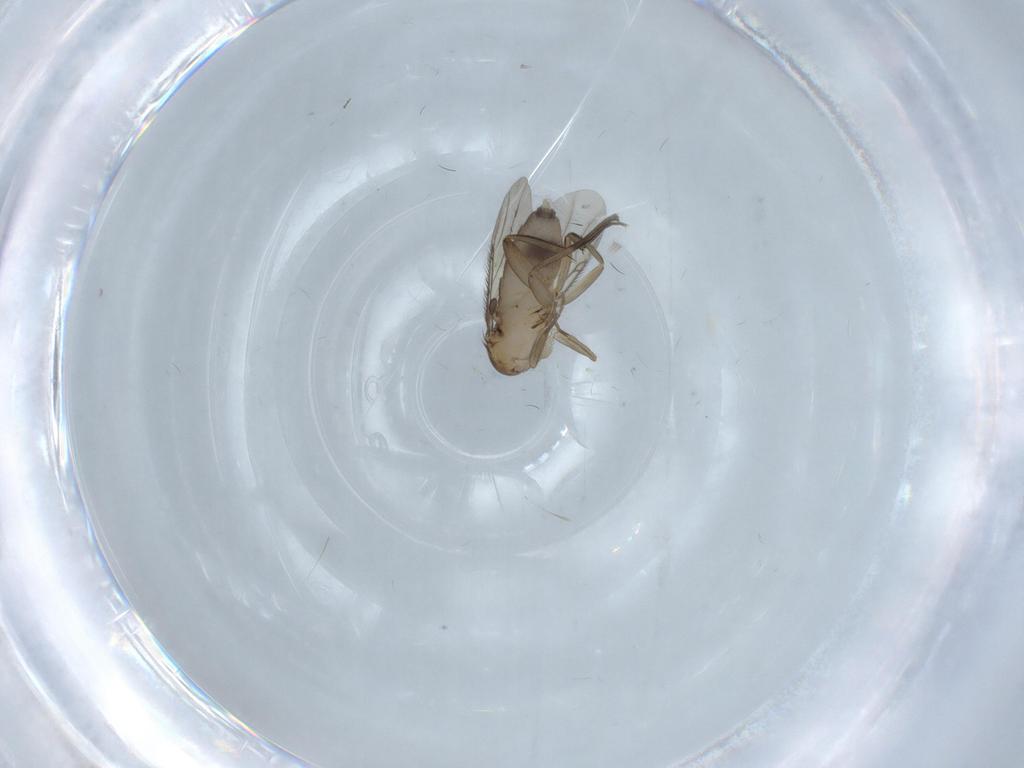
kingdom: Animalia
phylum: Arthropoda
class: Insecta
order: Diptera
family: Phoridae
